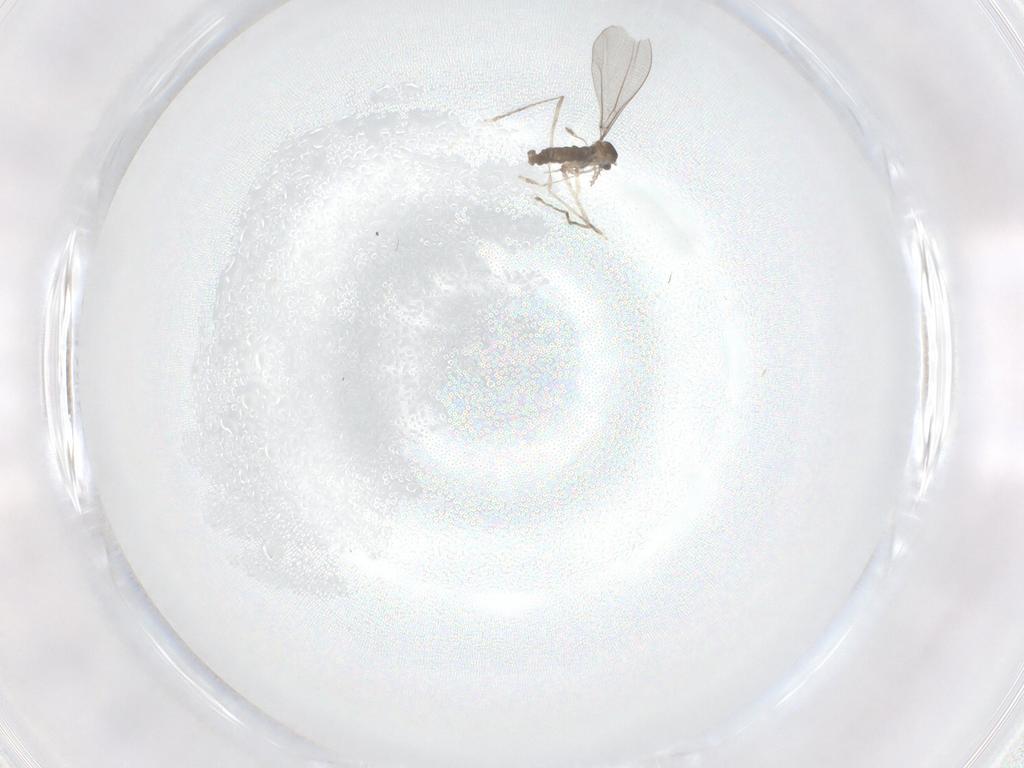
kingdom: Animalia
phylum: Arthropoda
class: Insecta
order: Diptera
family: Cecidomyiidae
